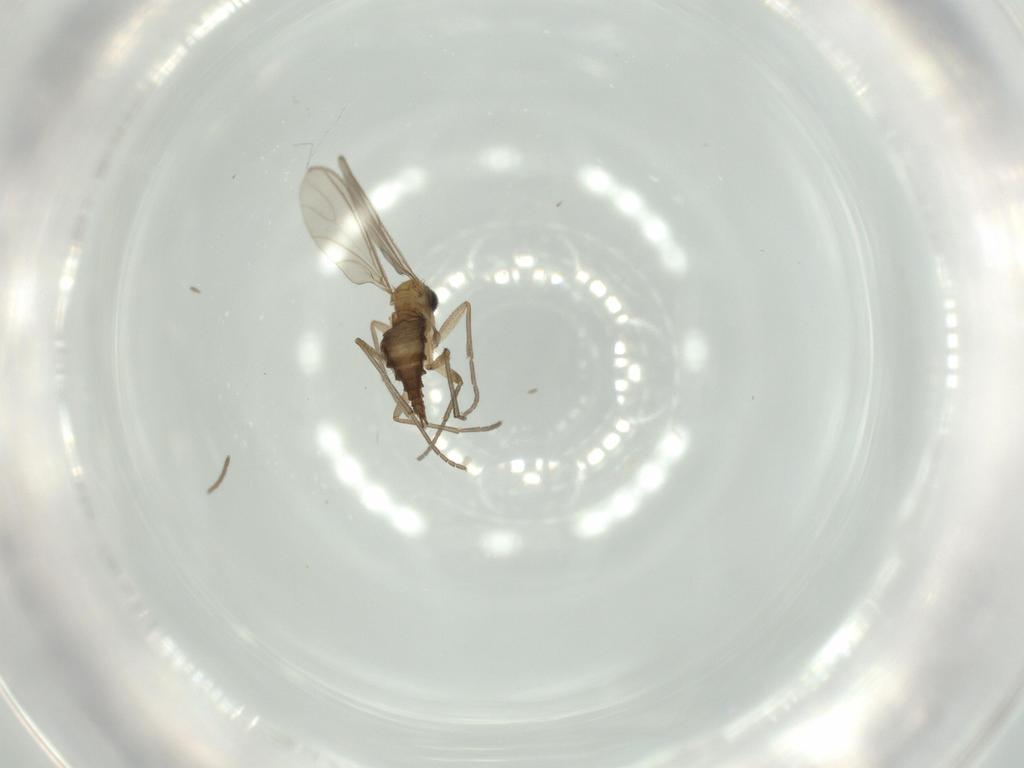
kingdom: Animalia
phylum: Arthropoda
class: Insecta
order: Diptera
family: Sciaridae
